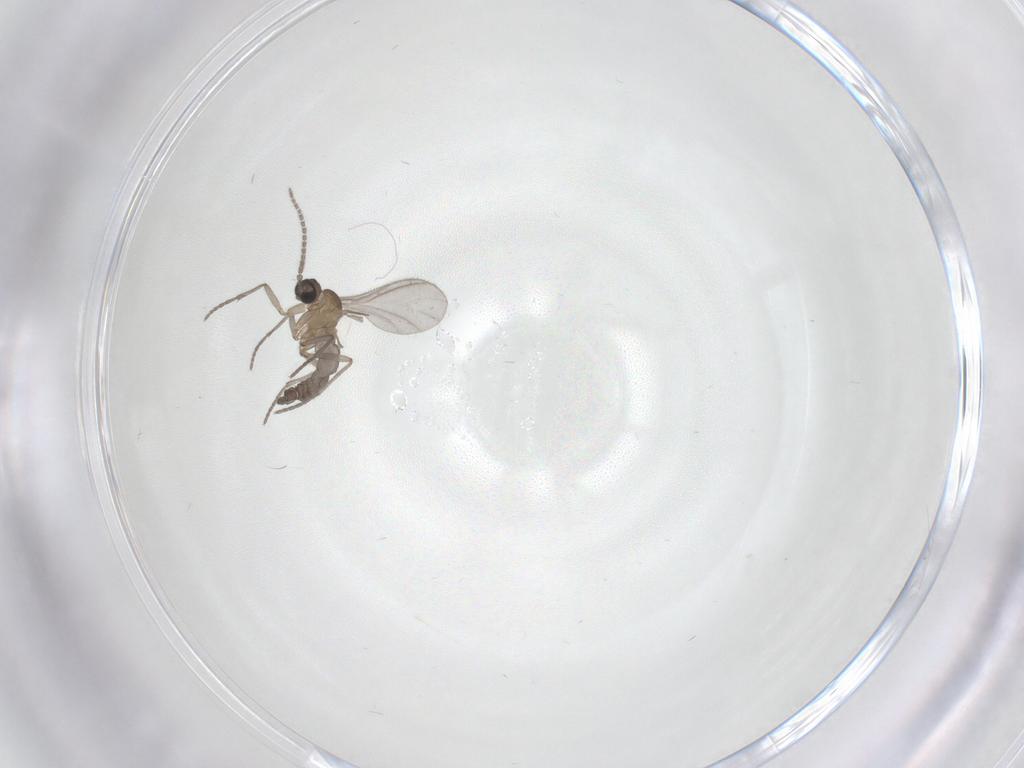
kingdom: Animalia
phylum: Arthropoda
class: Insecta
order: Diptera
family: Sciaridae
